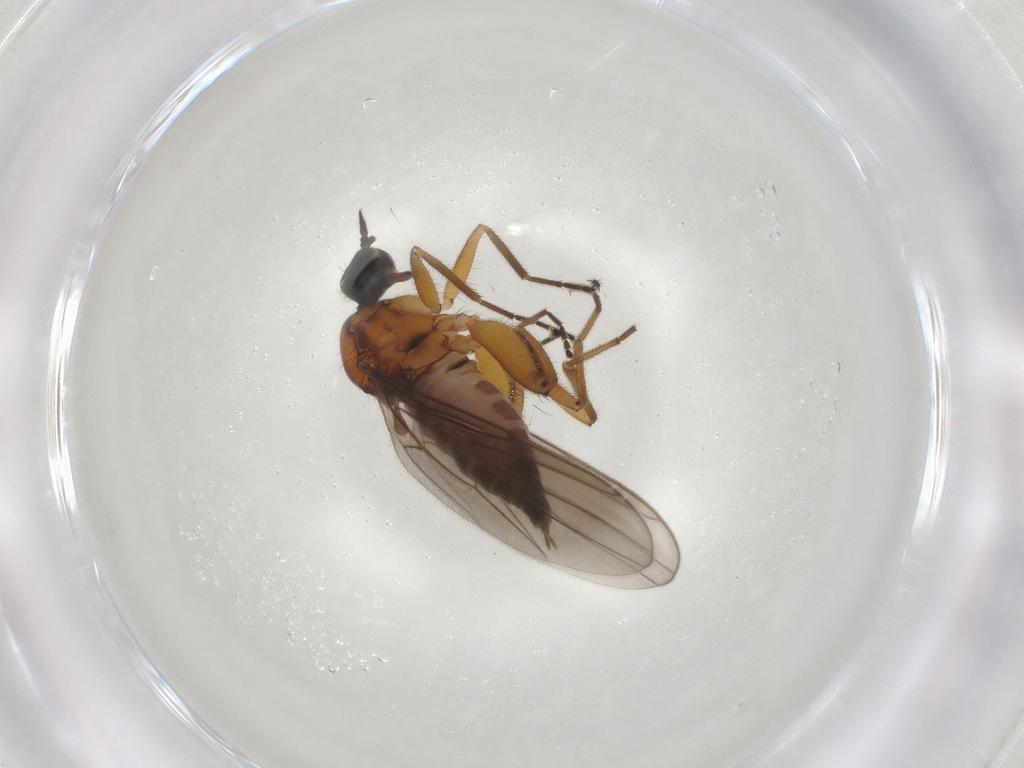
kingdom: Animalia
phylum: Arthropoda
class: Insecta
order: Diptera
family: Hybotidae
